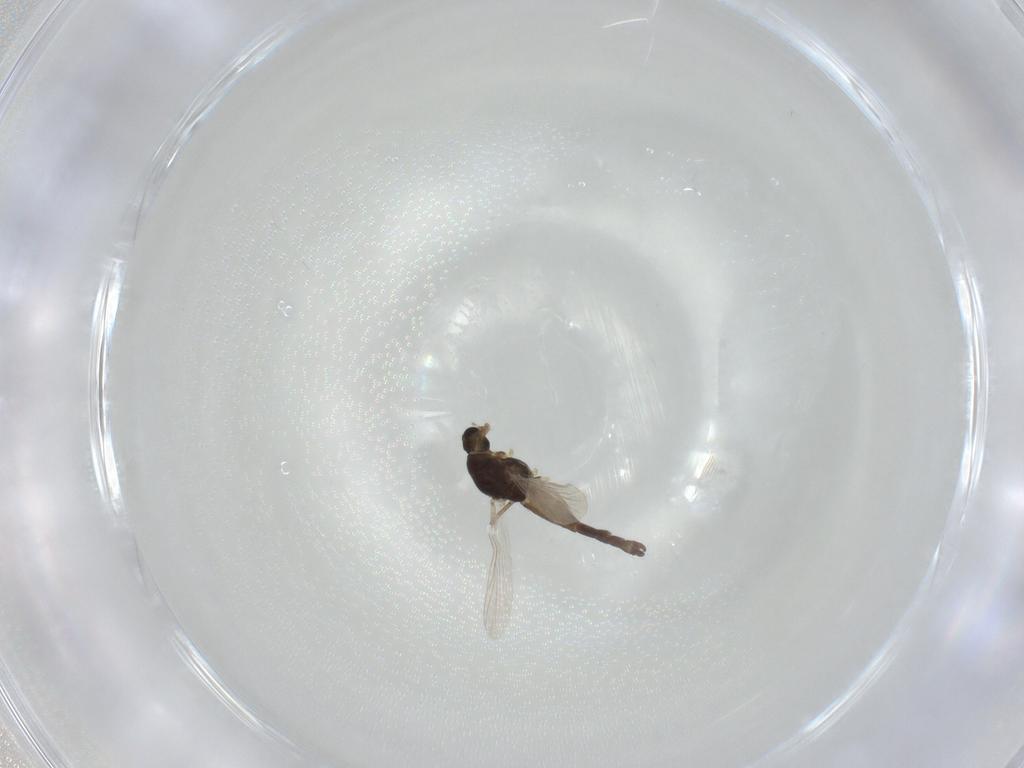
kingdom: Animalia
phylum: Arthropoda
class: Insecta
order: Diptera
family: Chironomidae
